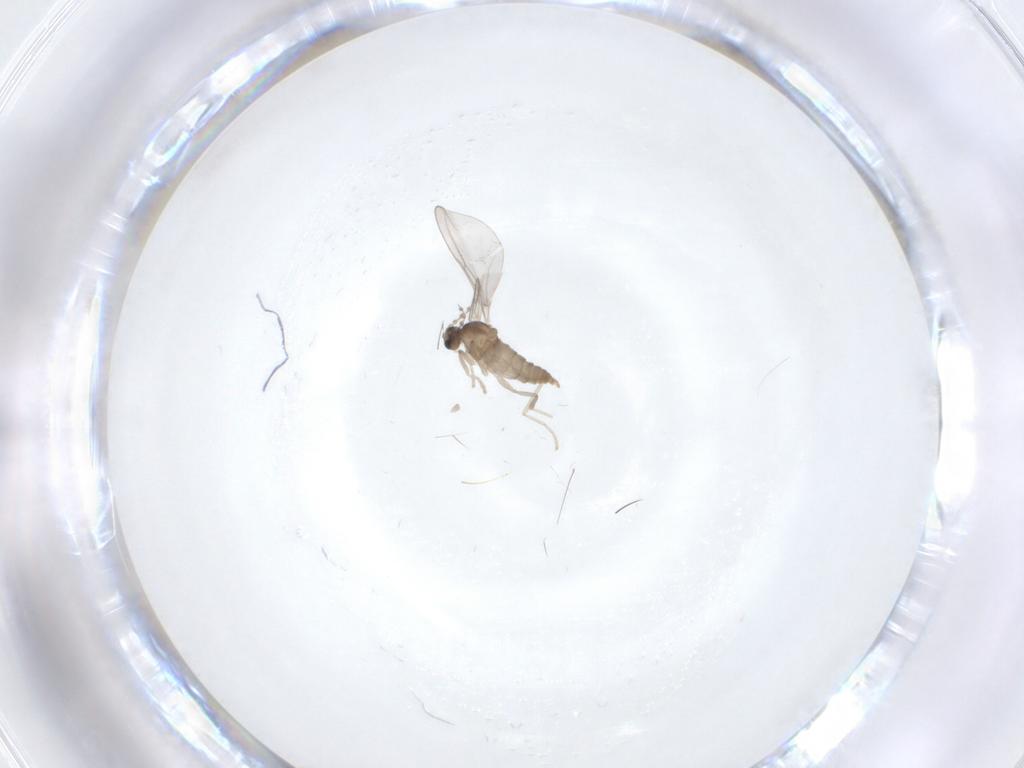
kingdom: Animalia
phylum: Arthropoda
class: Insecta
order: Diptera
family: Cecidomyiidae
